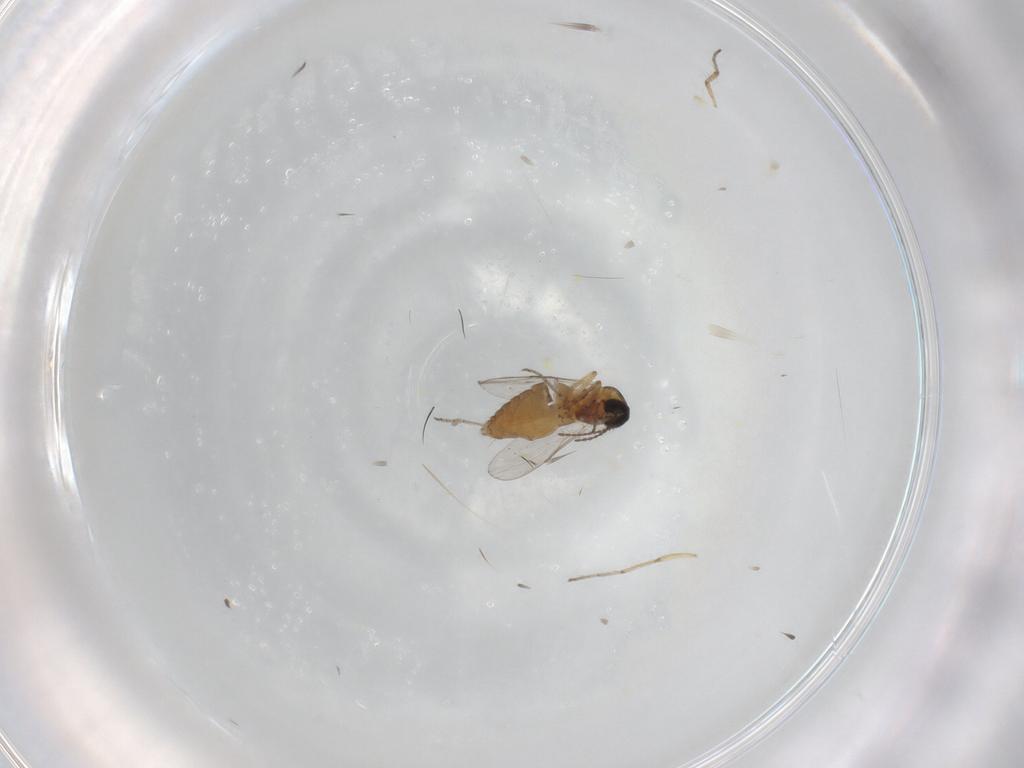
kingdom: Animalia
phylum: Arthropoda
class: Insecta
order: Diptera
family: Ceratopogonidae
